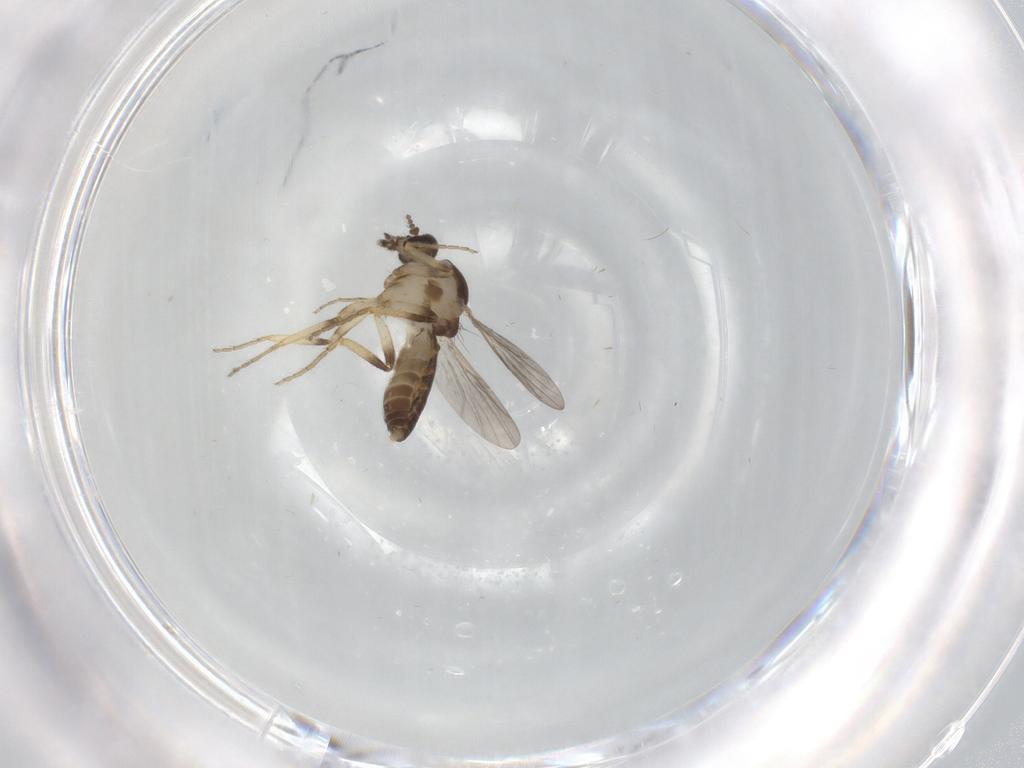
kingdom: Animalia
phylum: Arthropoda
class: Insecta
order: Diptera
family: Ceratopogonidae
